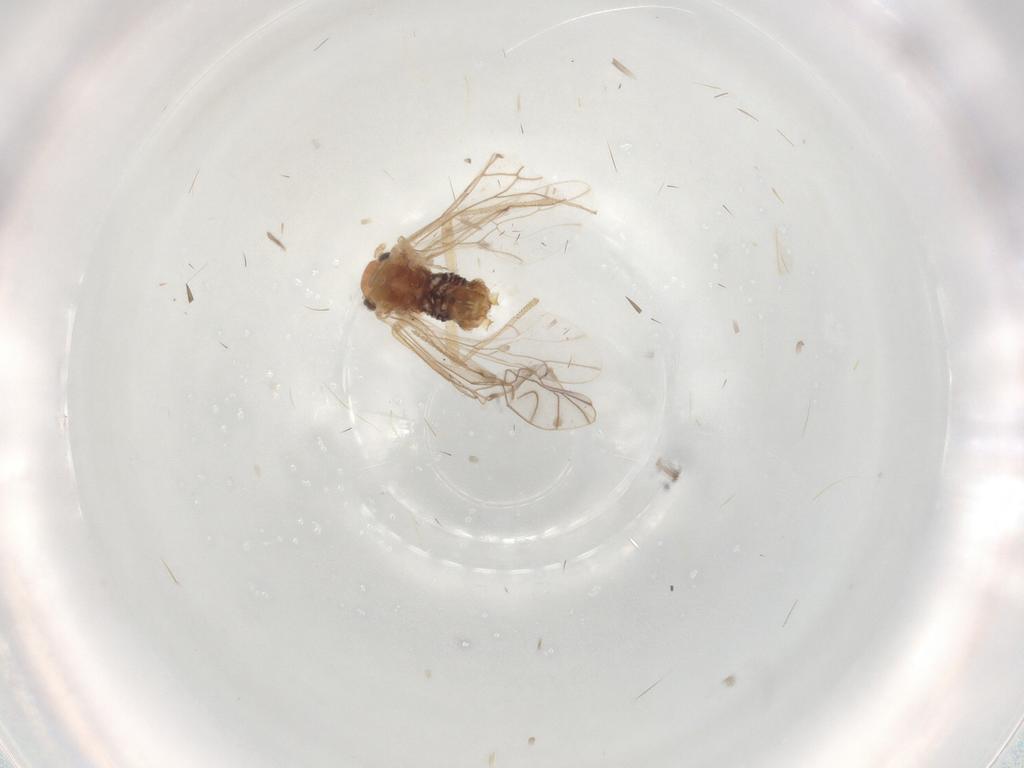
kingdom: Animalia
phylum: Arthropoda
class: Insecta
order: Psocodea
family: Lachesillidae
